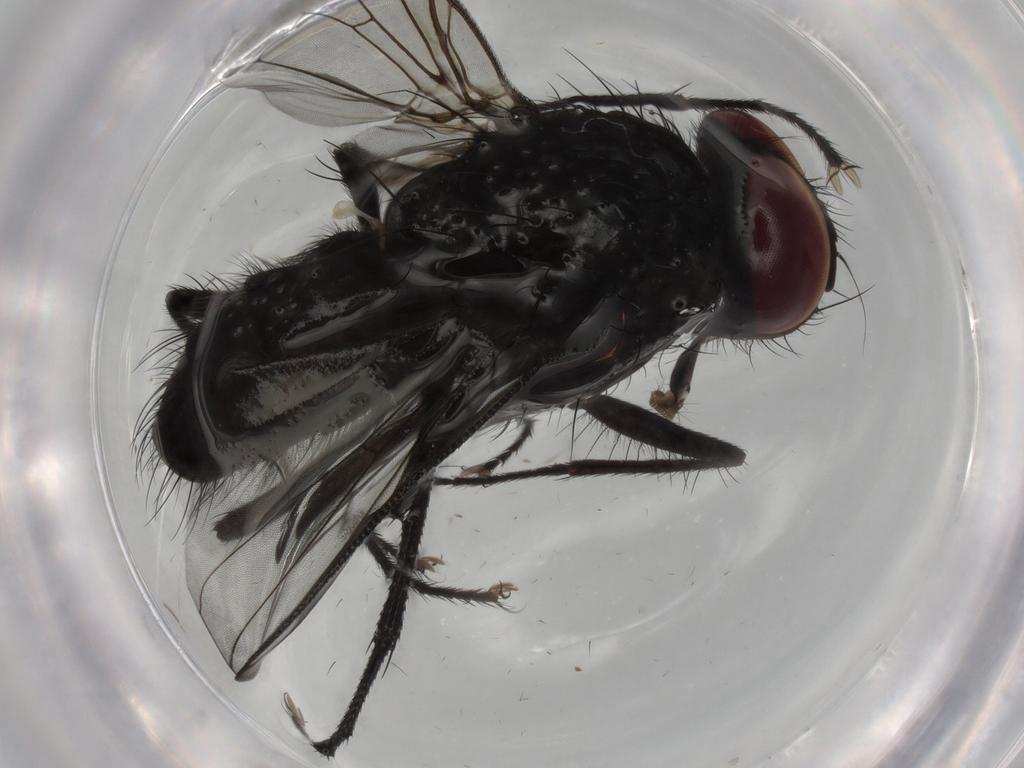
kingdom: Animalia
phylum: Arthropoda
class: Insecta
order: Diptera
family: Muscidae
